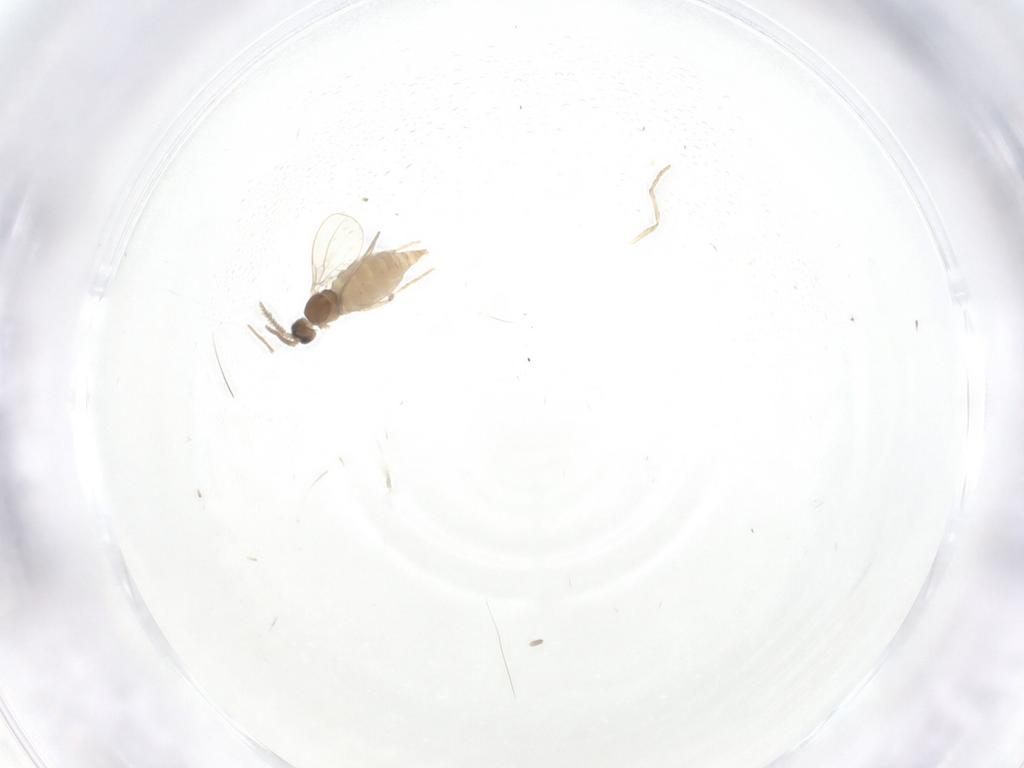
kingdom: Animalia
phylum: Arthropoda
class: Insecta
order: Diptera
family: Cecidomyiidae
